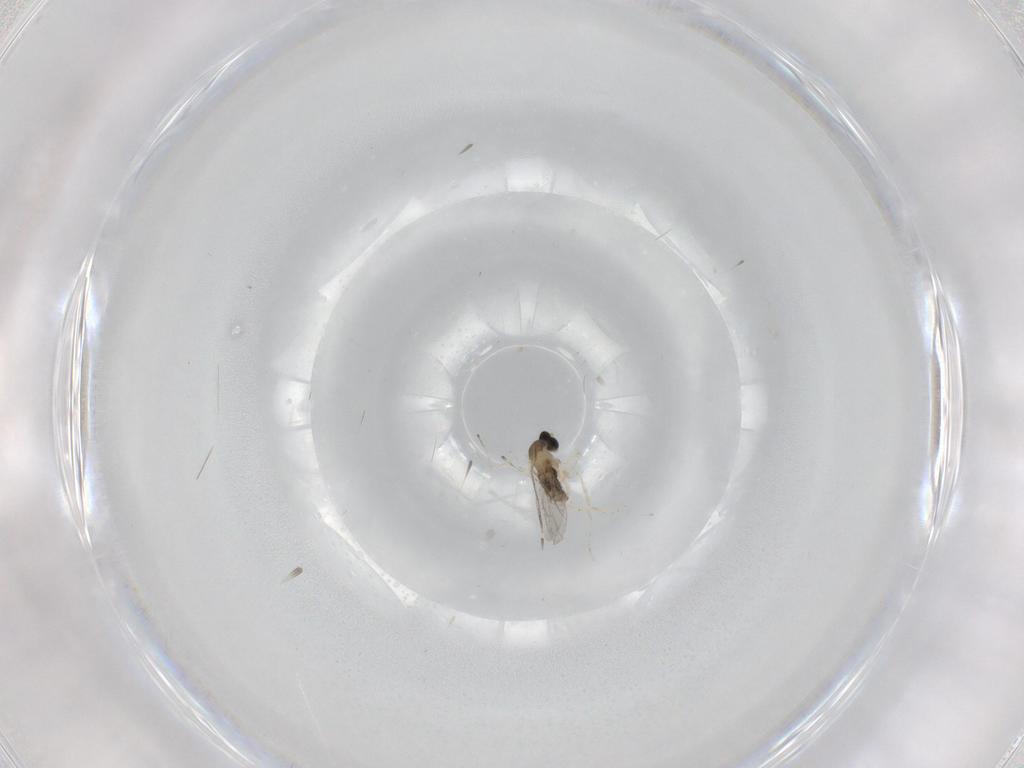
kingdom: Animalia
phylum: Arthropoda
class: Insecta
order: Diptera
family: Cecidomyiidae
